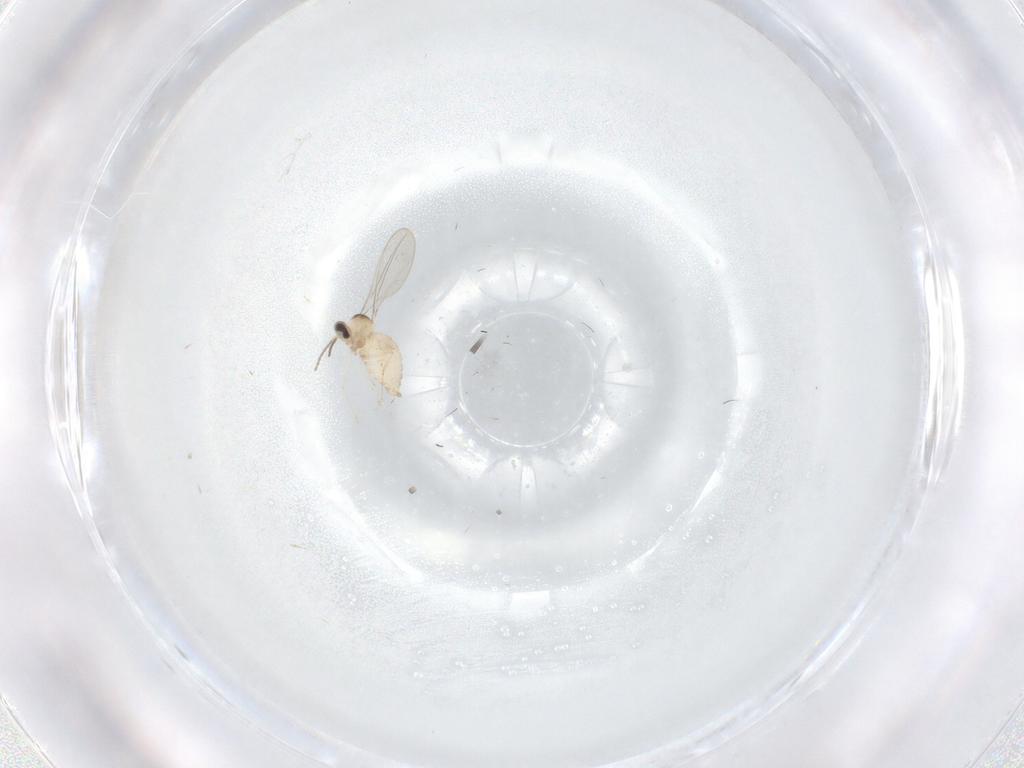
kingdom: Animalia
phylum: Arthropoda
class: Insecta
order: Diptera
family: Cecidomyiidae
